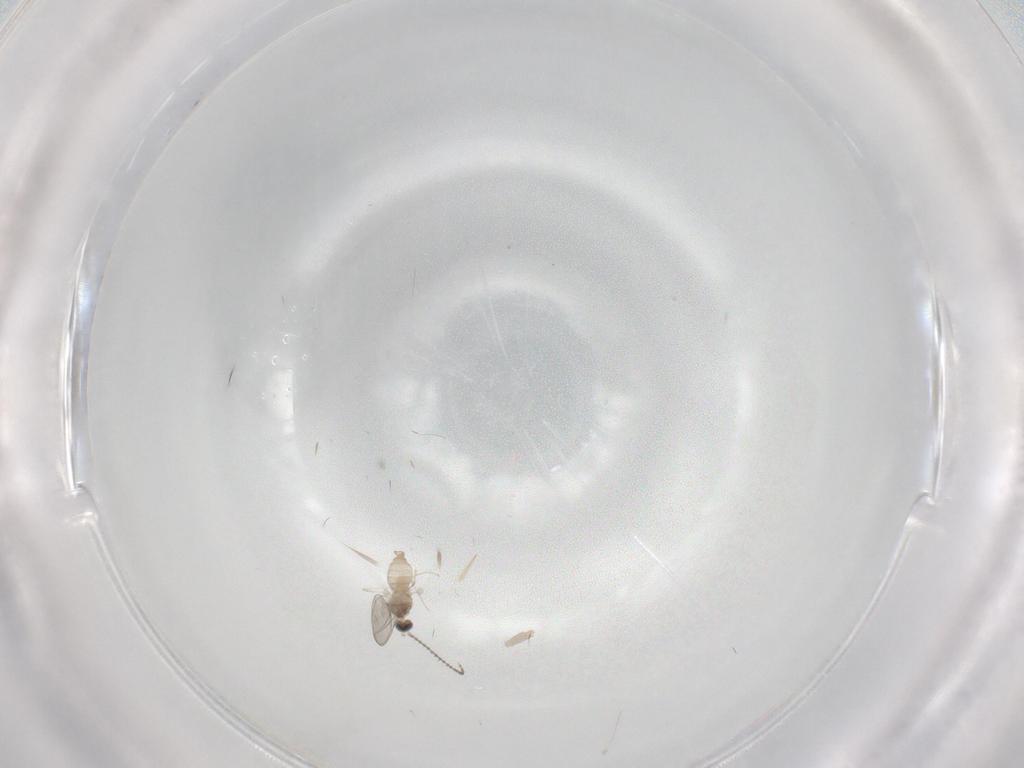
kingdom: Animalia
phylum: Arthropoda
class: Insecta
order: Diptera
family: Cecidomyiidae
